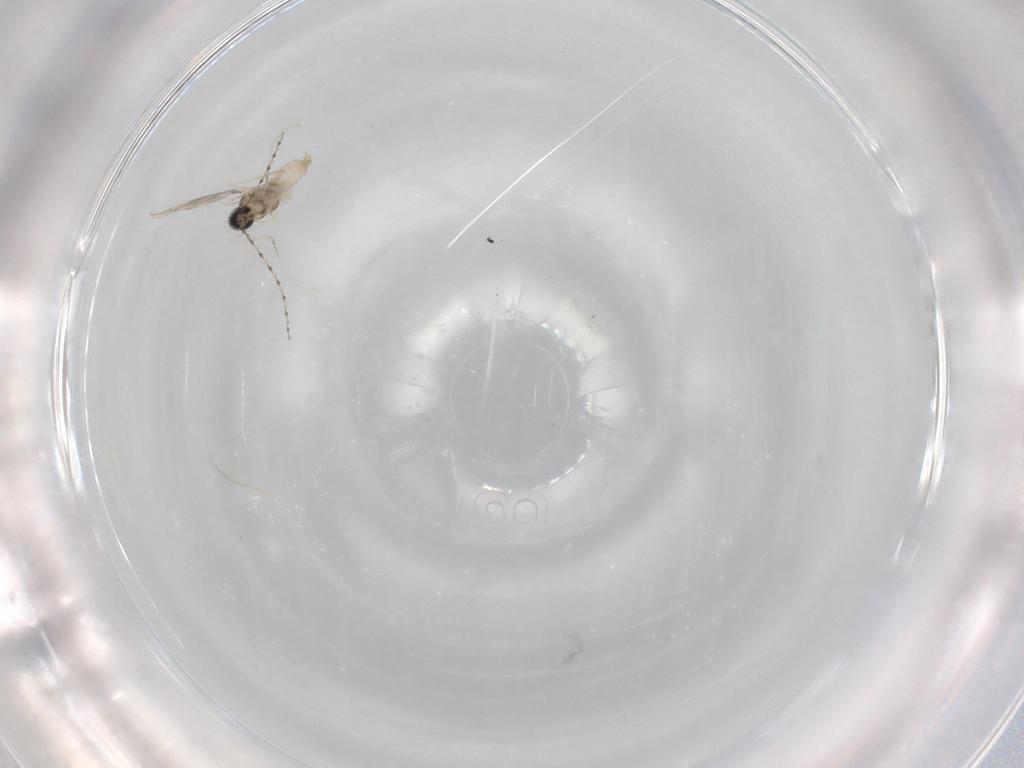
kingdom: Animalia
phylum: Arthropoda
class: Insecta
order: Diptera
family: Cecidomyiidae
